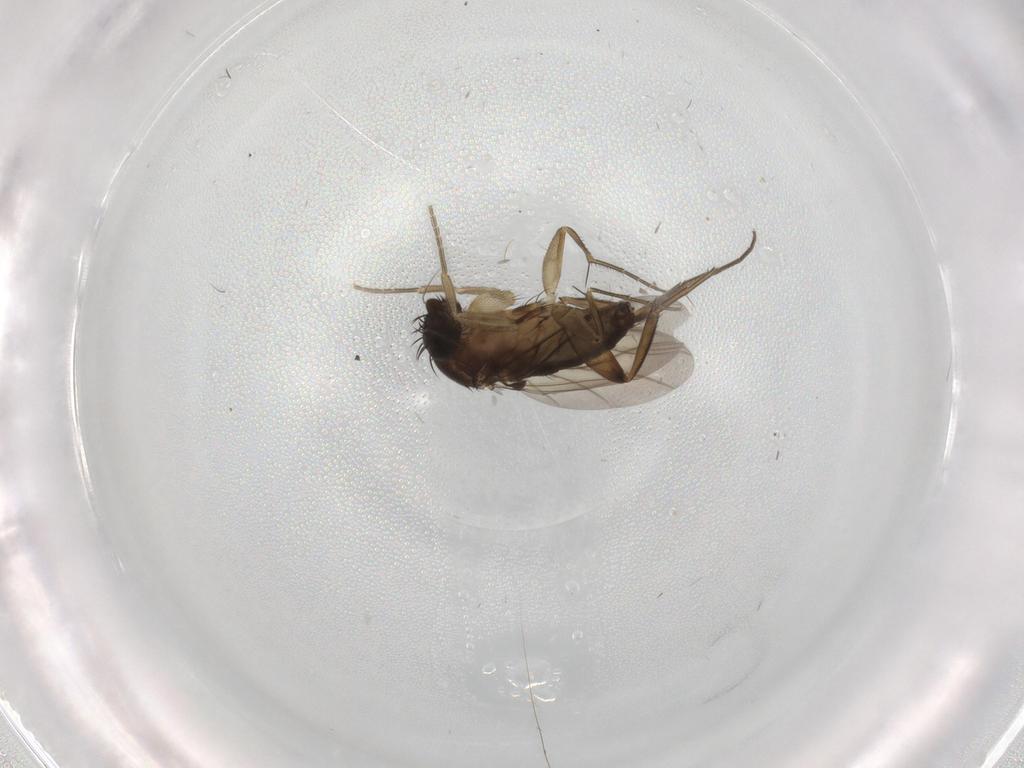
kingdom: Animalia
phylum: Arthropoda
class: Insecta
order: Diptera
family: Phoridae
